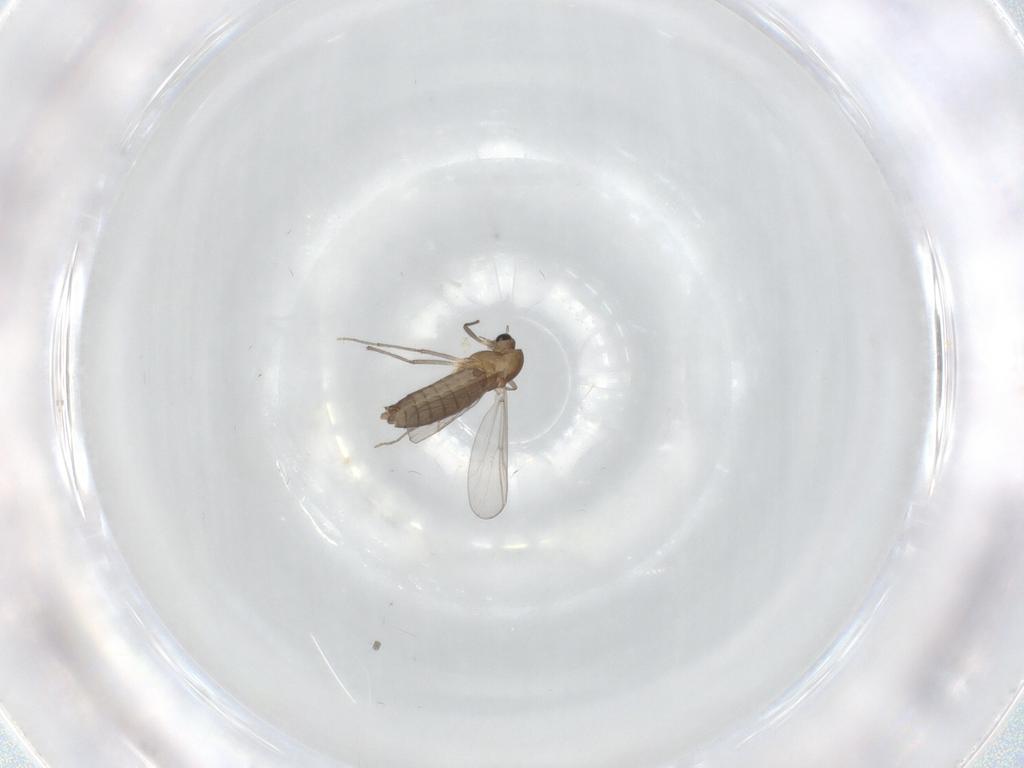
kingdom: Animalia
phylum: Arthropoda
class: Insecta
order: Diptera
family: Chironomidae
